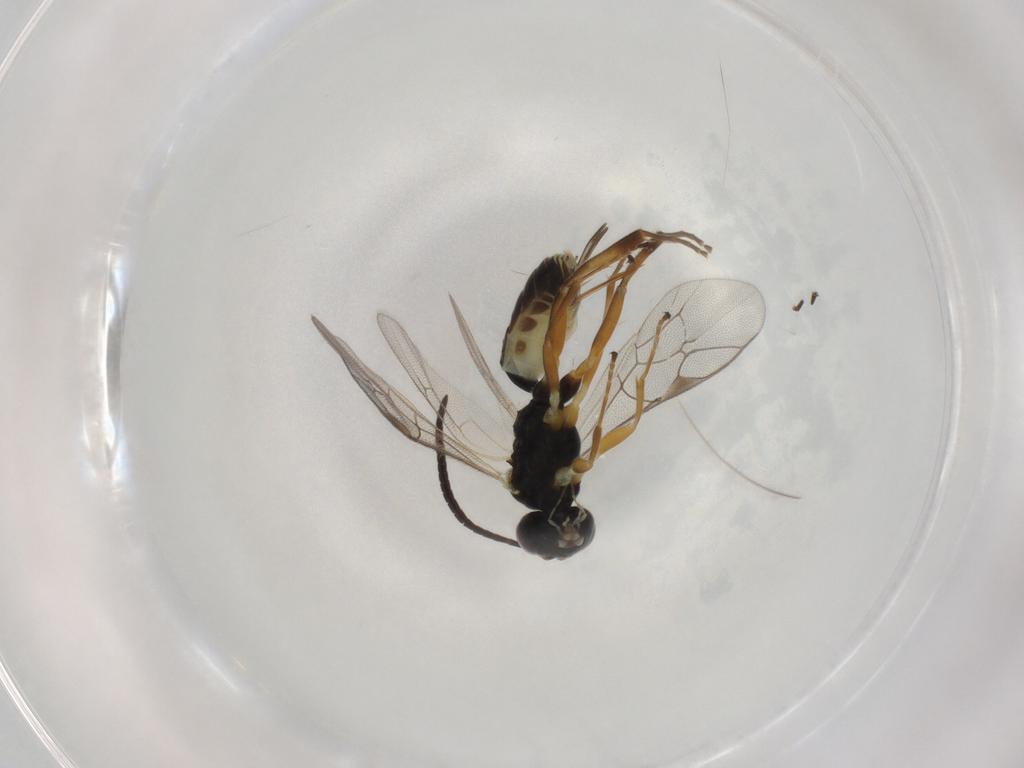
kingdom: Animalia
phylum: Arthropoda
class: Insecta
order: Hymenoptera
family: Ichneumonidae
